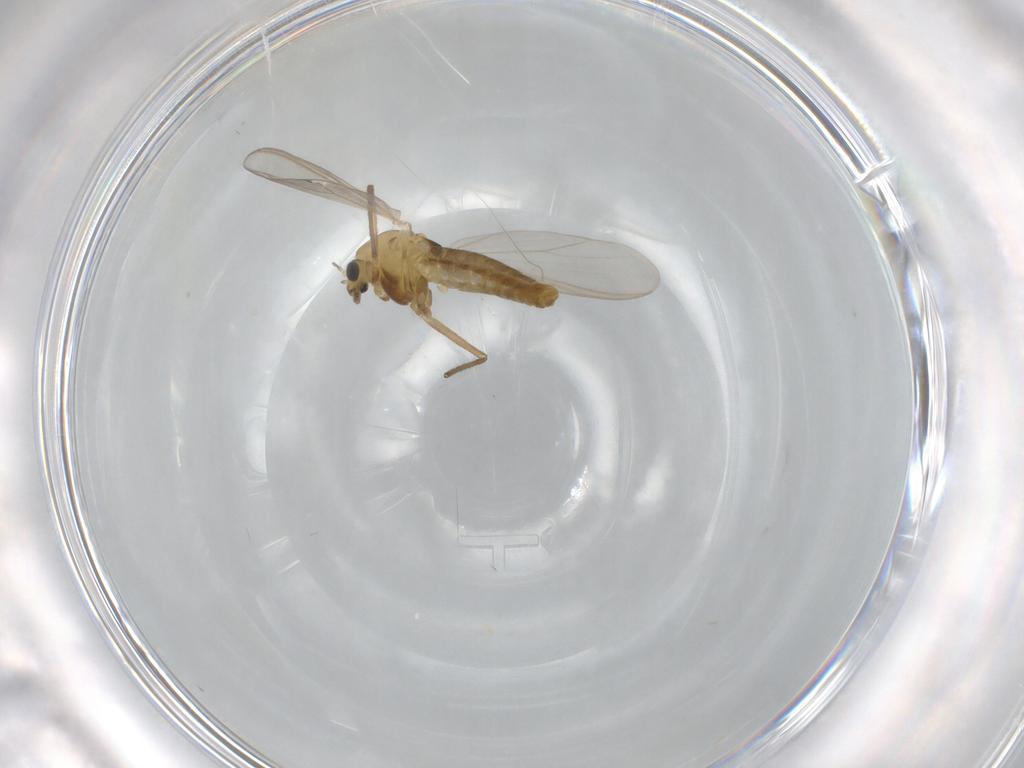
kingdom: Animalia
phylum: Arthropoda
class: Insecta
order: Diptera
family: Chironomidae
